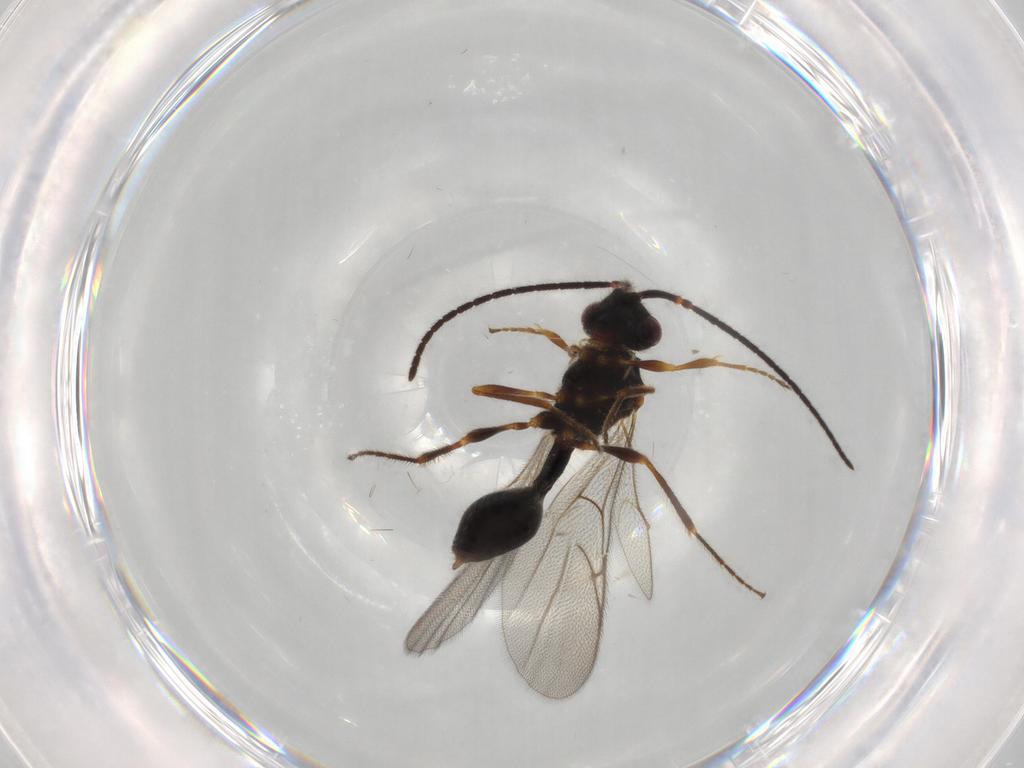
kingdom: Animalia
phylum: Arthropoda
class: Insecta
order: Hymenoptera
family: Diapriidae
